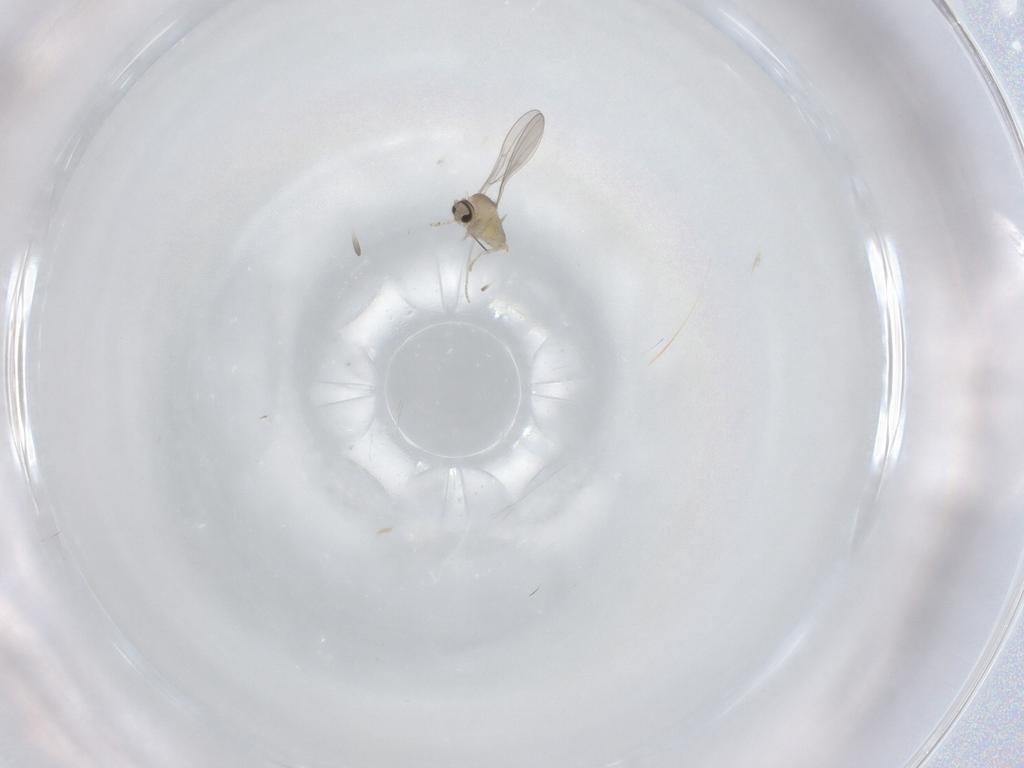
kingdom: Animalia
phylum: Arthropoda
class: Insecta
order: Diptera
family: Cecidomyiidae
